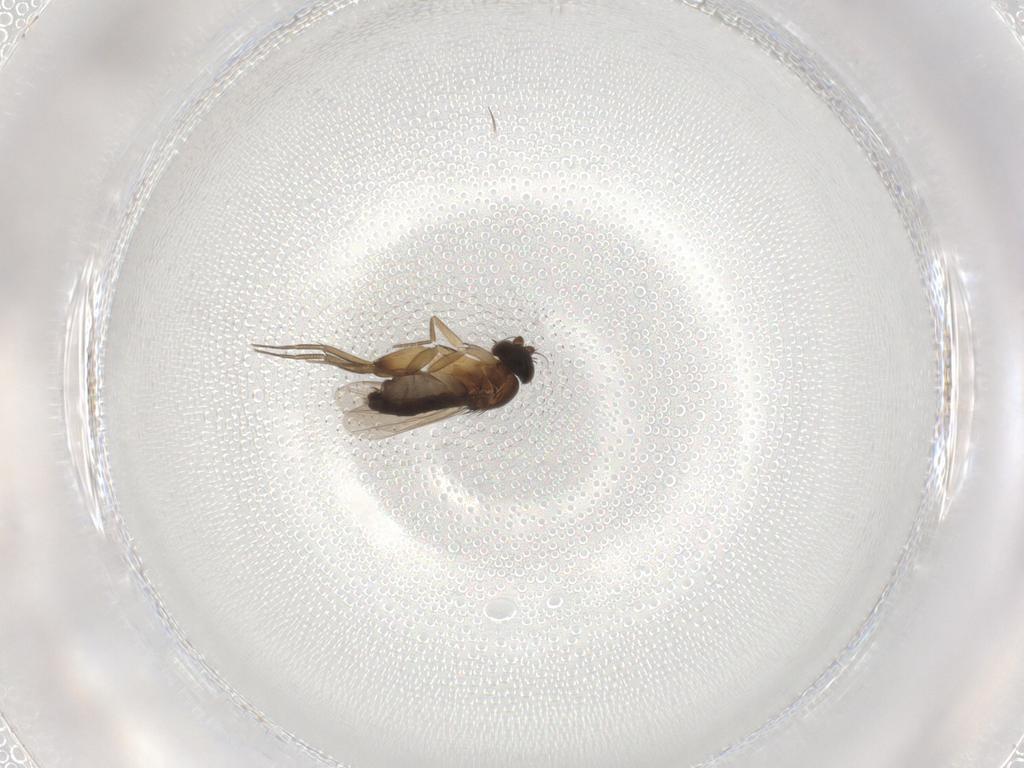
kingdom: Animalia
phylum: Arthropoda
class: Insecta
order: Diptera
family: Phoridae
